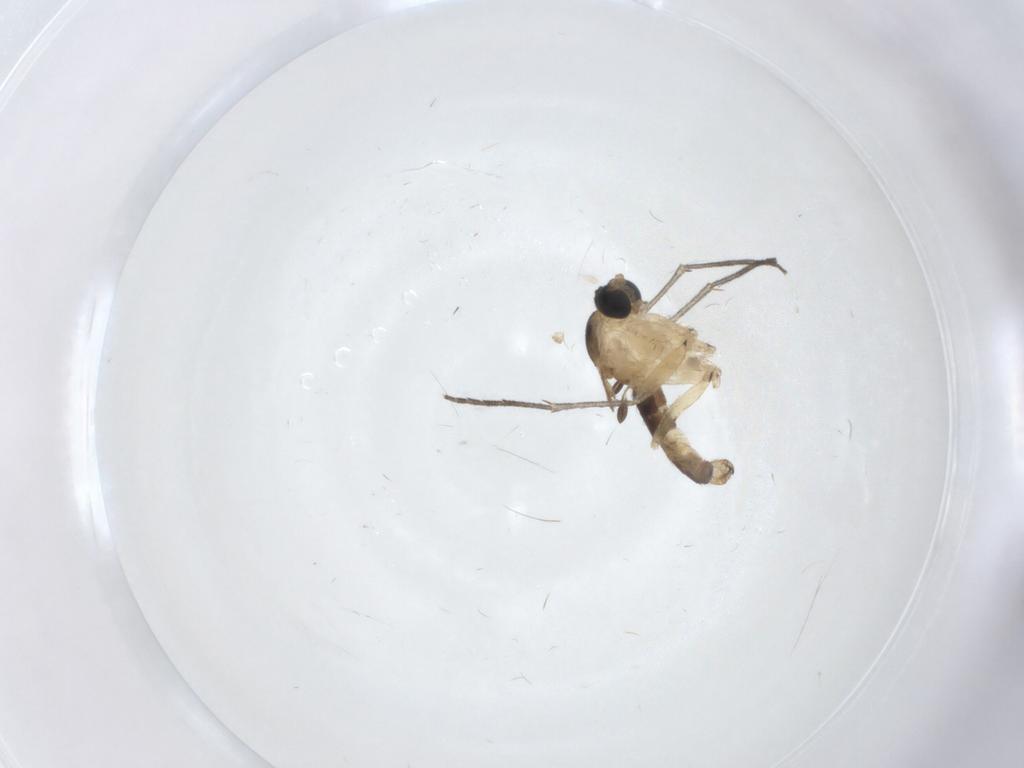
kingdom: Animalia
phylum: Arthropoda
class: Insecta
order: Diptera
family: Sciaridae
